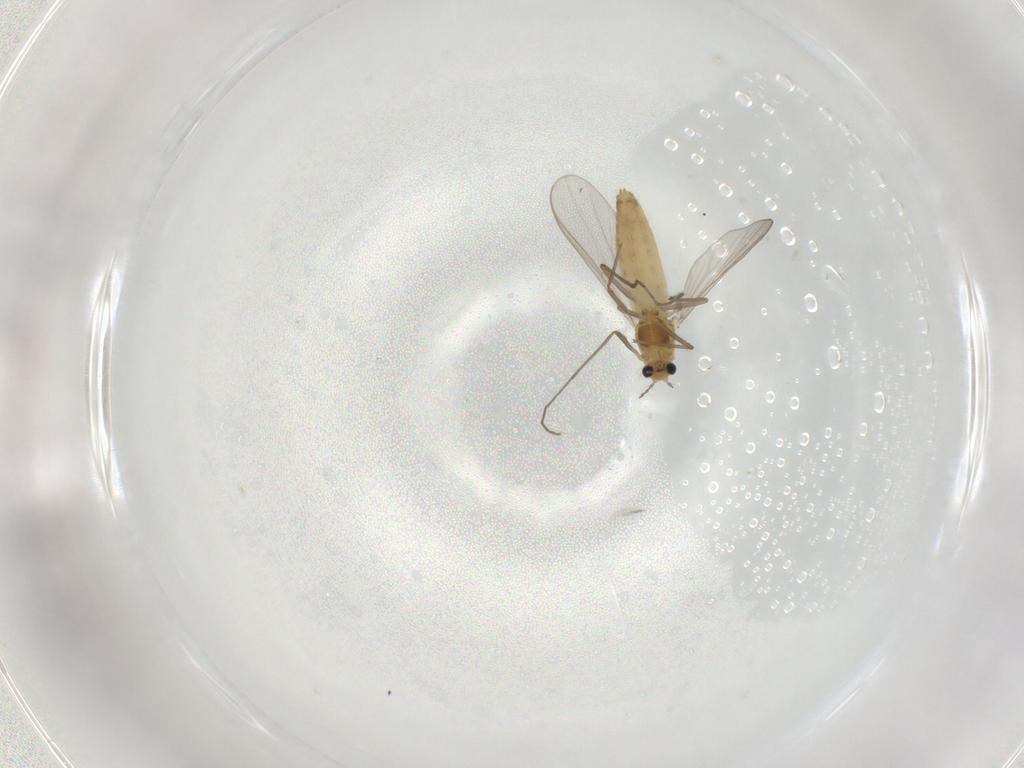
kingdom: Animalia
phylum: Arthropoda
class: Insecta
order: Diptera
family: Chironomidae
